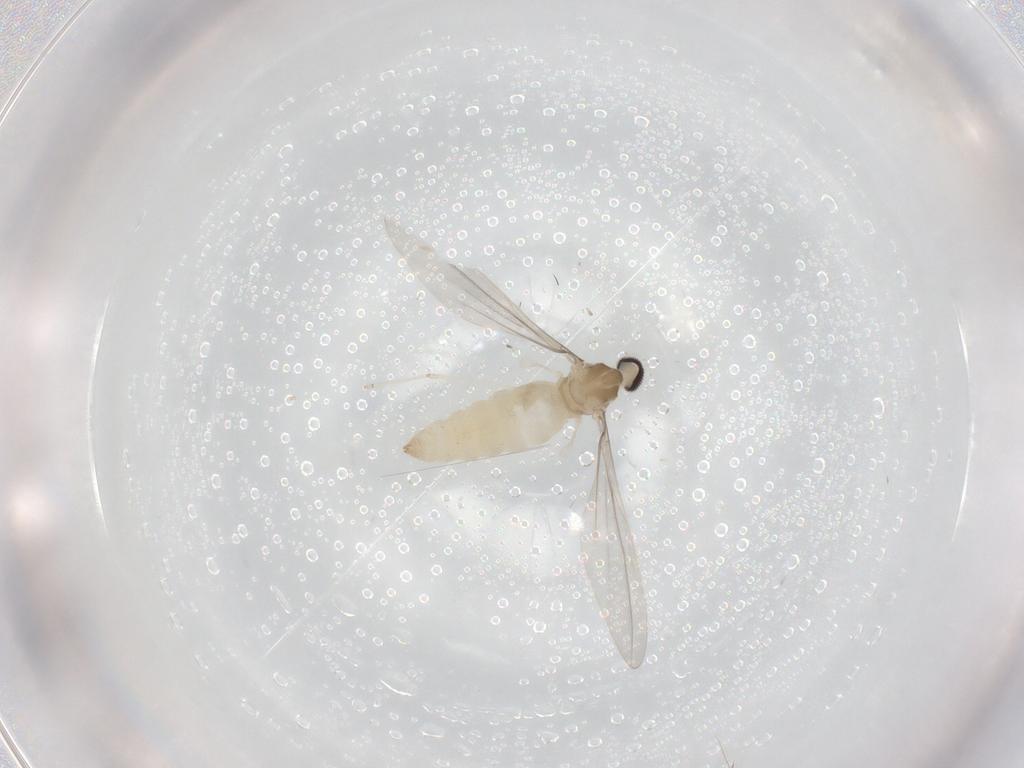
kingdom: Animalia
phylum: Arthropoda
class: Insecta
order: Diptera
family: Cecidomyiidae
